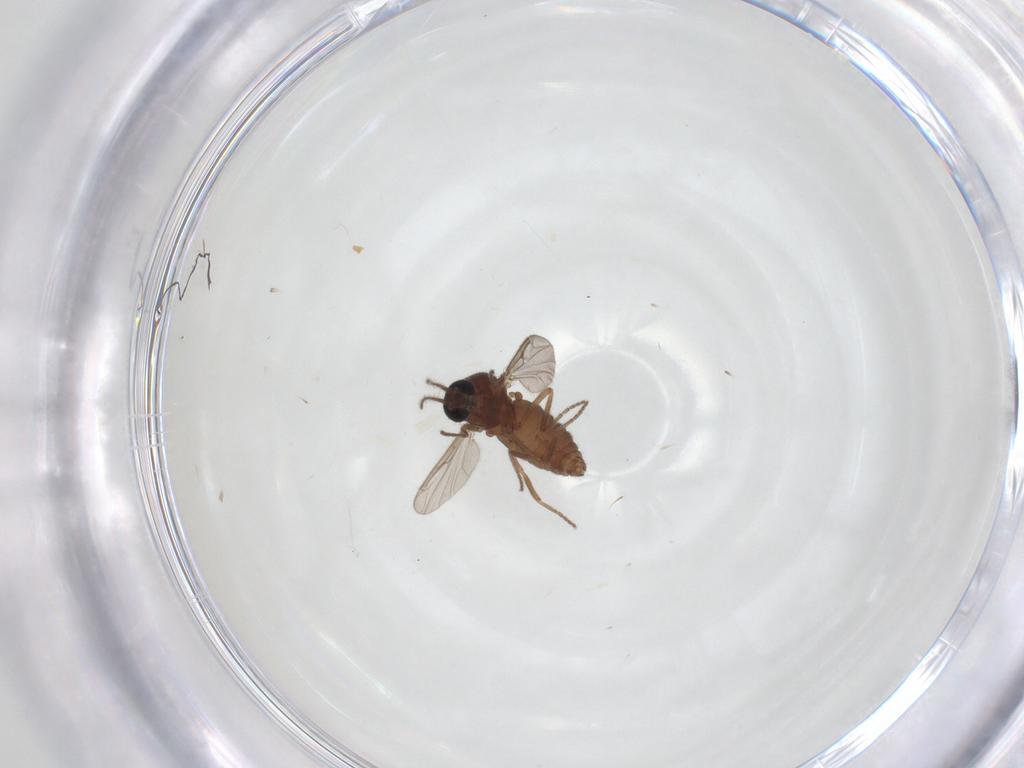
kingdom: Animalia
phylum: Arthropoda
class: Insecta
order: Diptera
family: Ceratopogonidae
